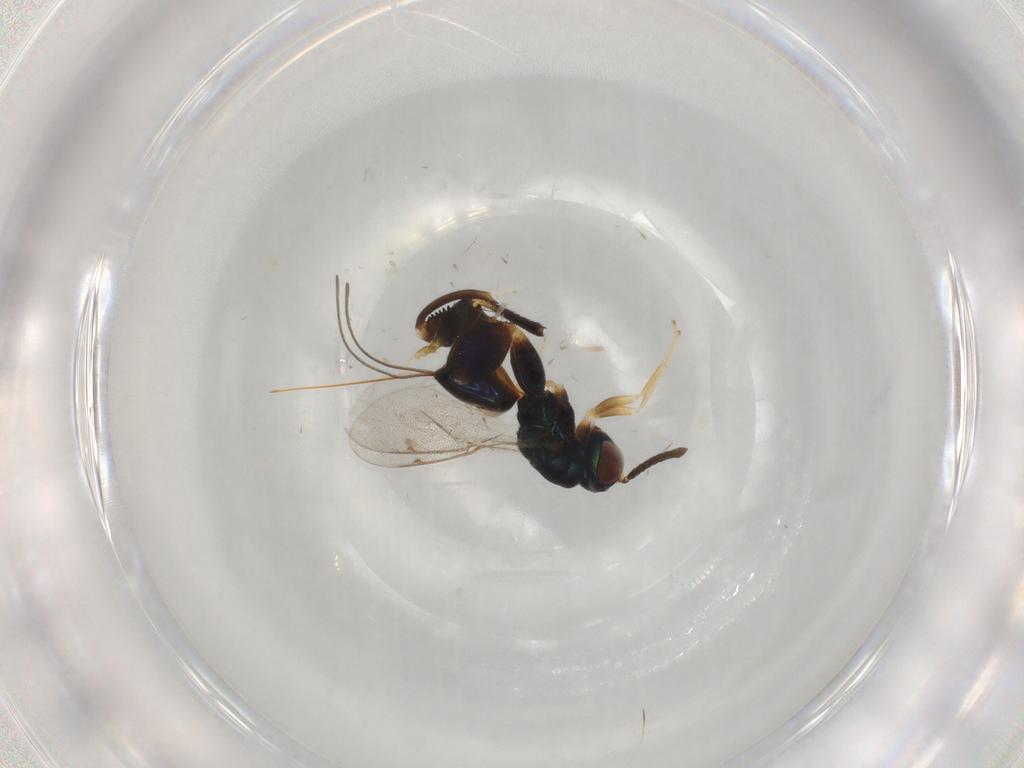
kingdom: Animalia
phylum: Arthropoda
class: Insecta
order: Hymenoptera
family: Torymidae
